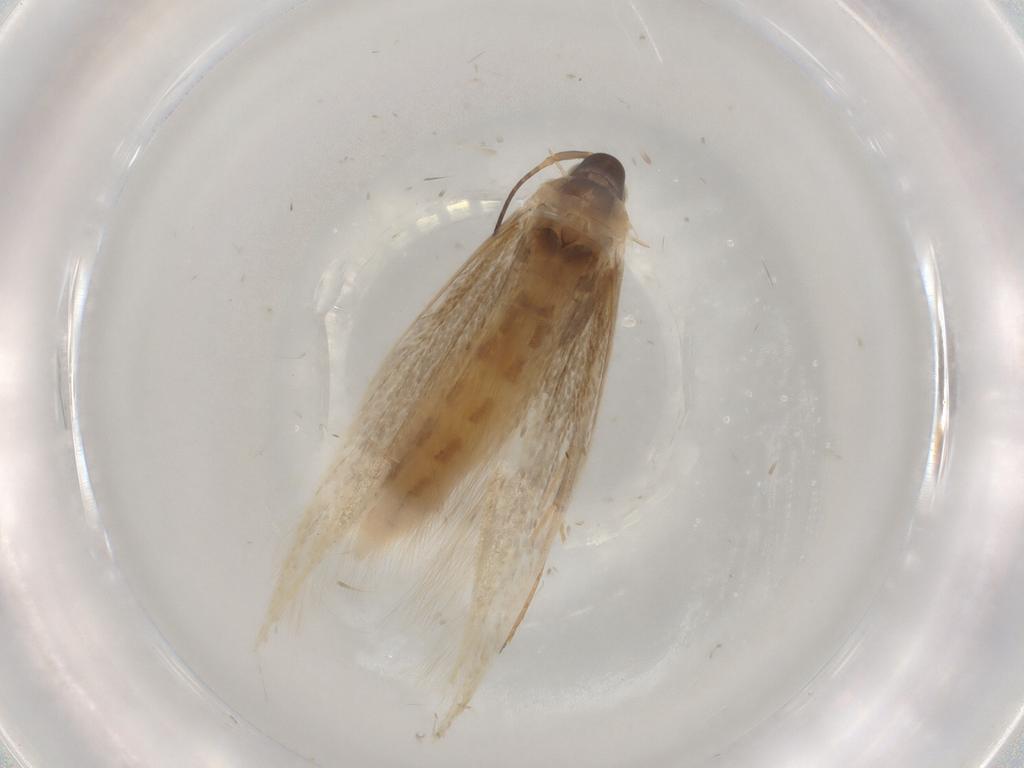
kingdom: Animalia
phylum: Arthropoda
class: Insecta
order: Lepidoptera
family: Coleophoridae
